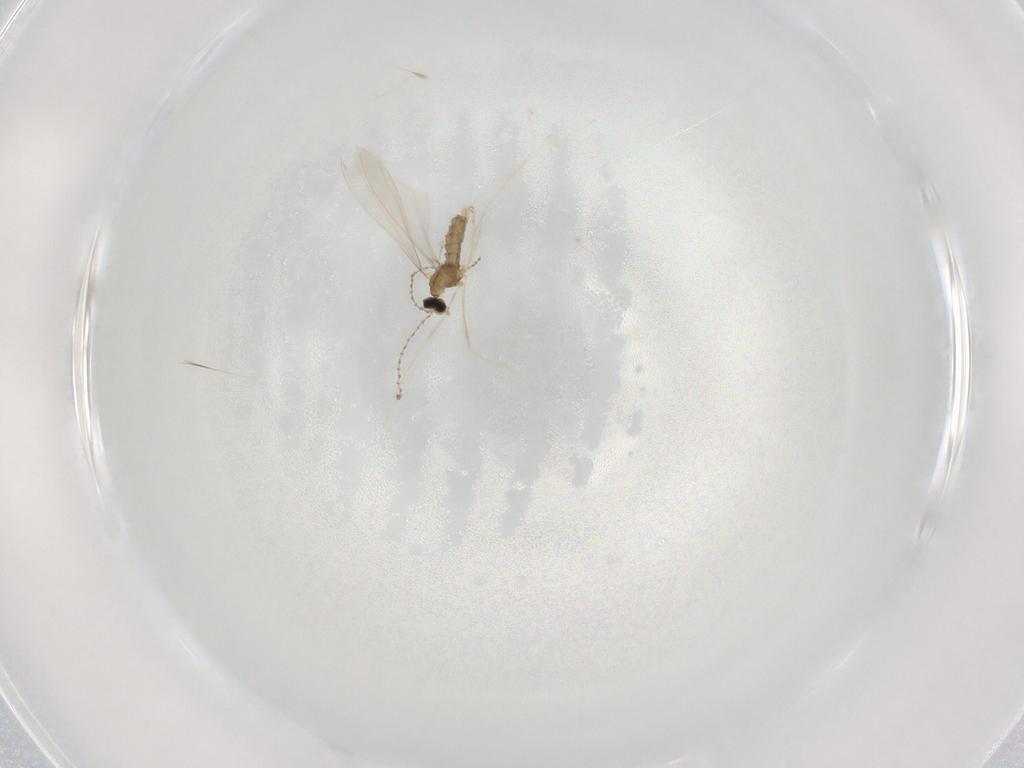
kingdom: Animalia
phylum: Arthropoda
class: Insecta
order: Diptera
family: Cecidomyiidae
